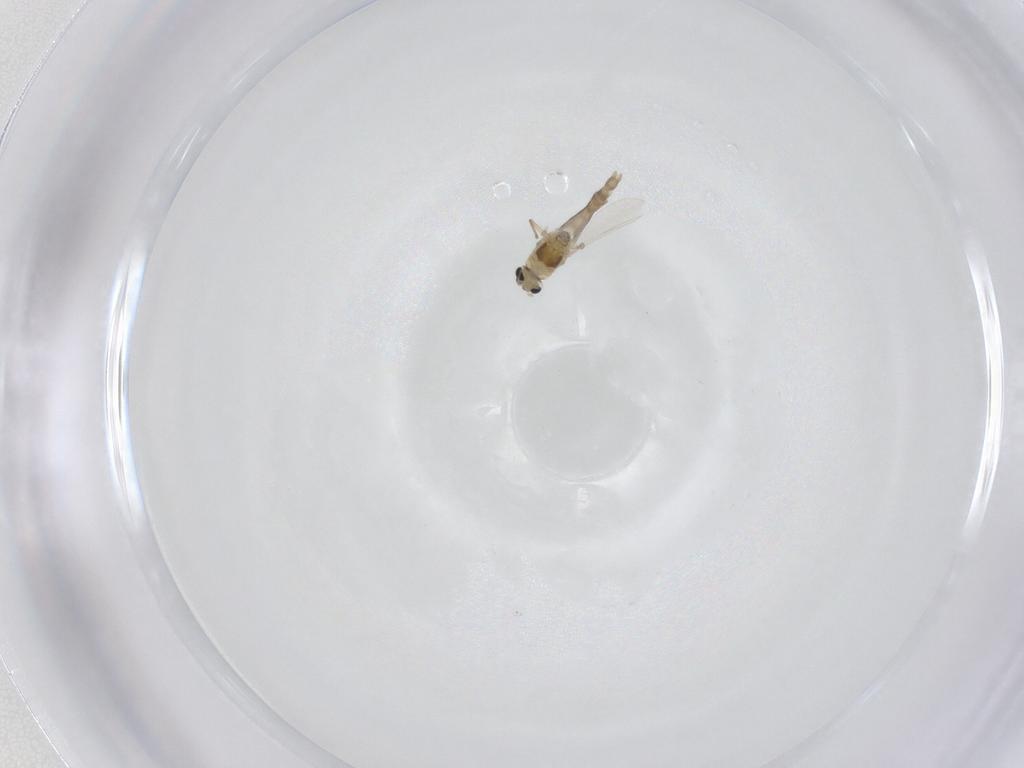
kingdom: Animalia
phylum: Arthropoda
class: Insecta
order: Diptera
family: Chironomidae
